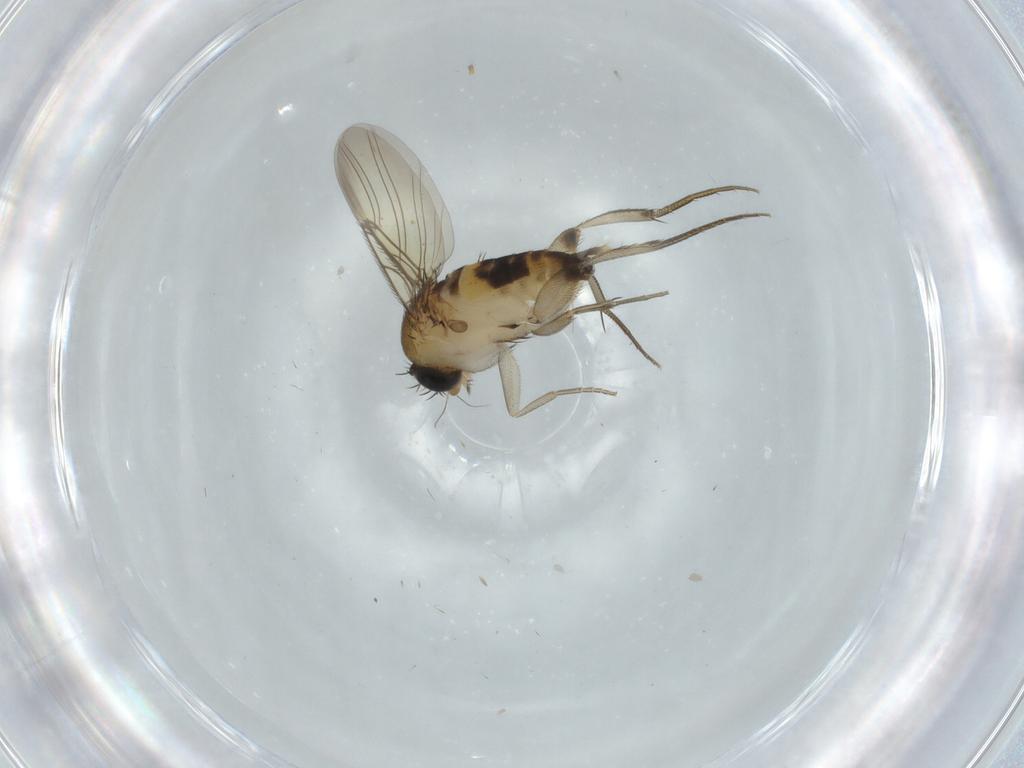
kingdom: Animalia
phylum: Arthropoda
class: Insecta
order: Diptera
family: Phoridae
